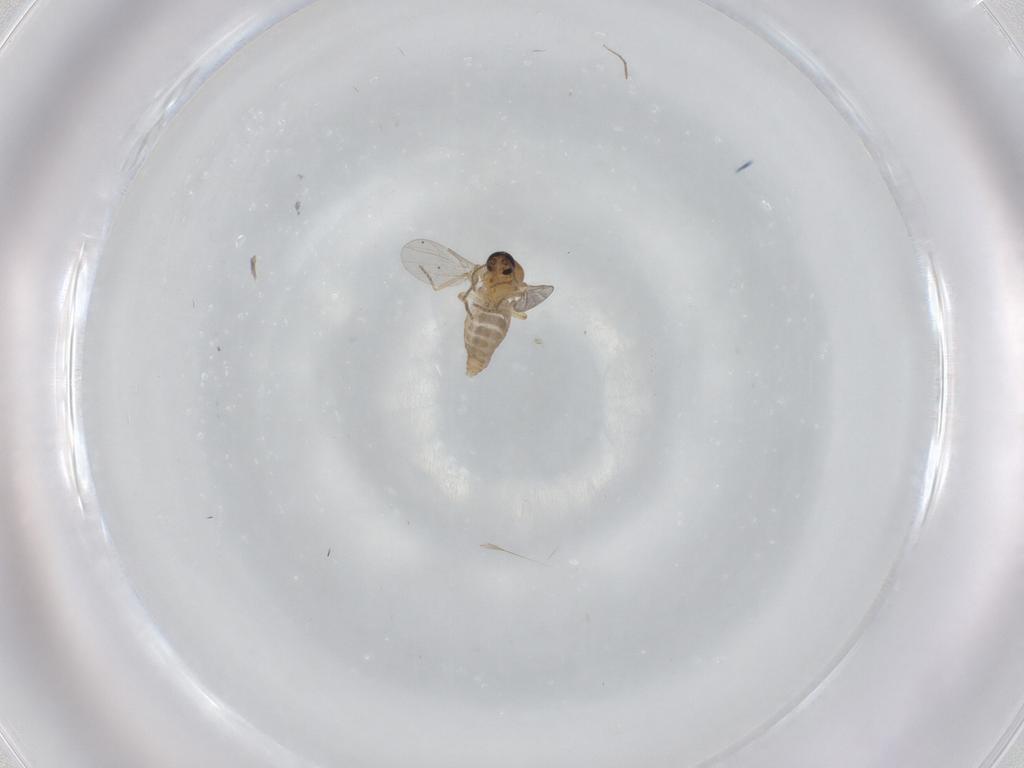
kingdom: Animalia
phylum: Arthropoda
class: Insecta
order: Diptera
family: Ceratopogonidae
